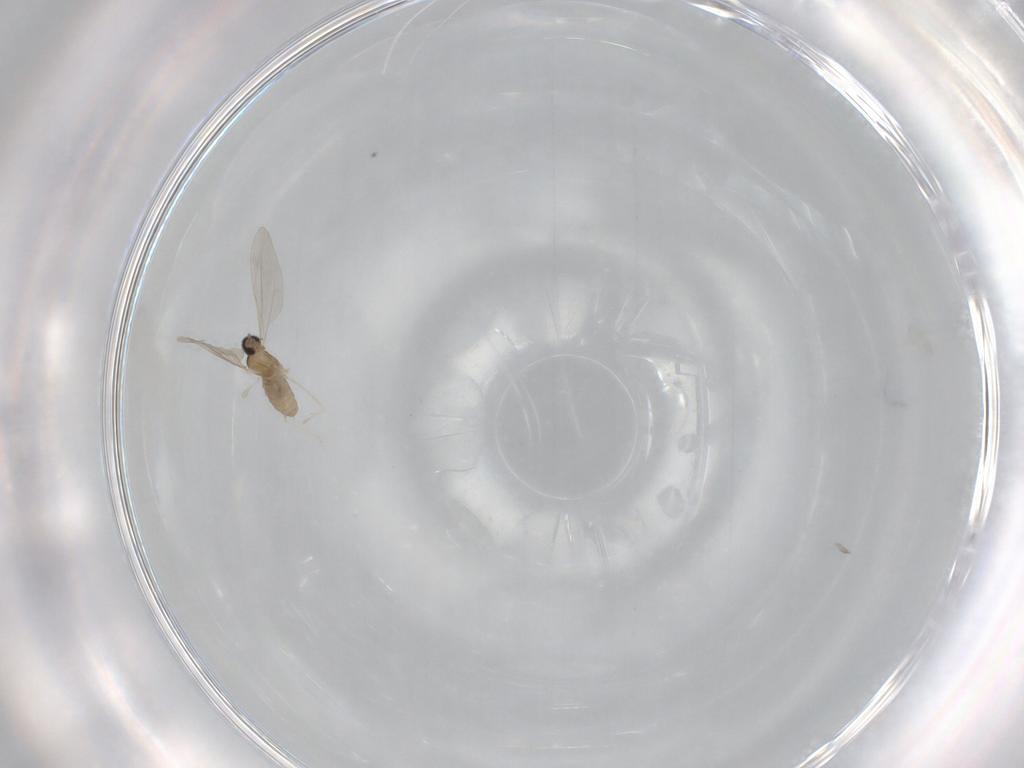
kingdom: Animalia
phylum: Arthropoda
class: Insecta
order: Diptera
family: Cecidomyiidae
